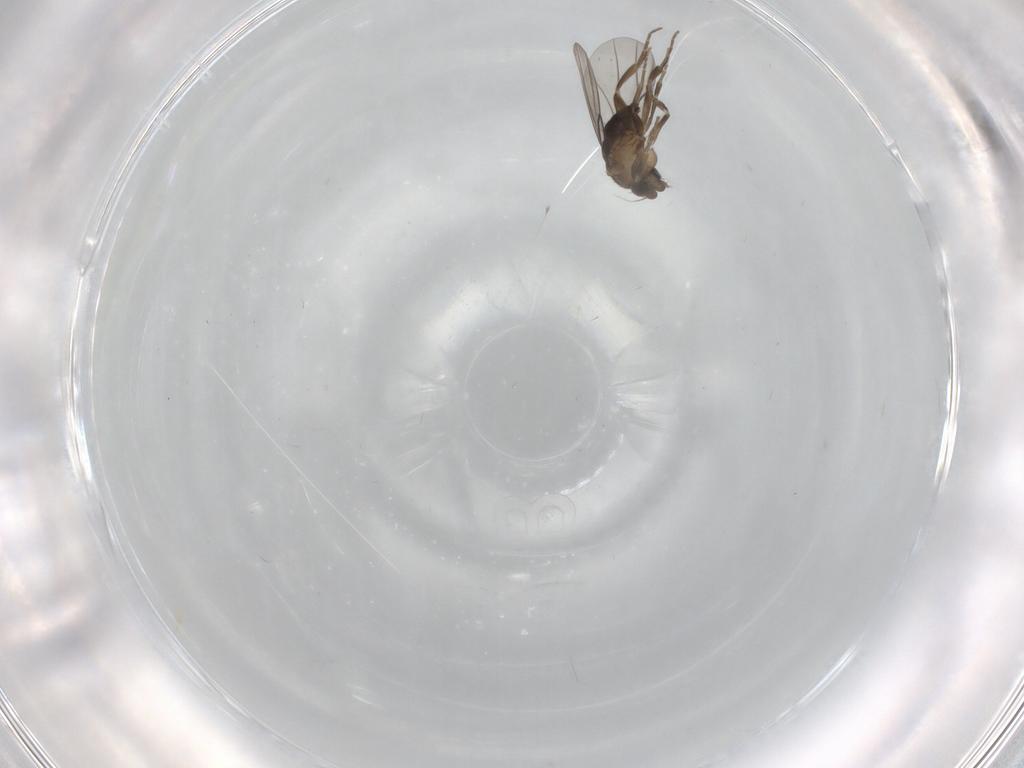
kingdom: Animalia
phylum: Arthropoda
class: Insecta
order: Diptera
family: Phoridae
